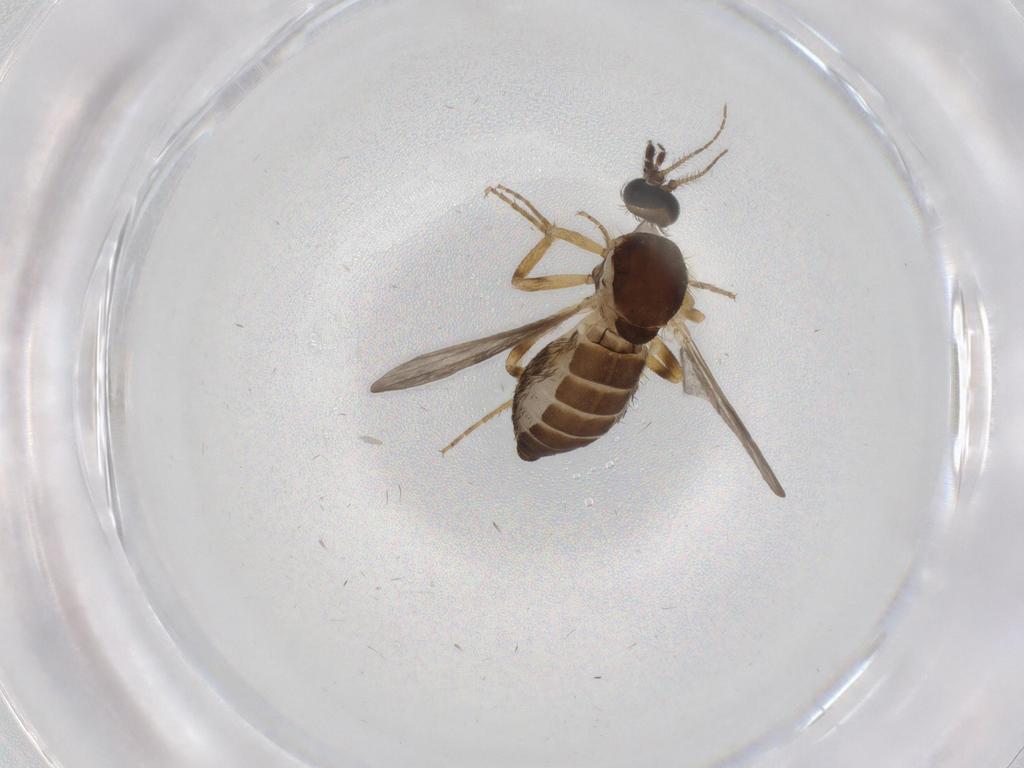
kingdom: Animalia
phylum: Arthropoda
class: Insecta
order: Diptera
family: Ceratopogonidae
